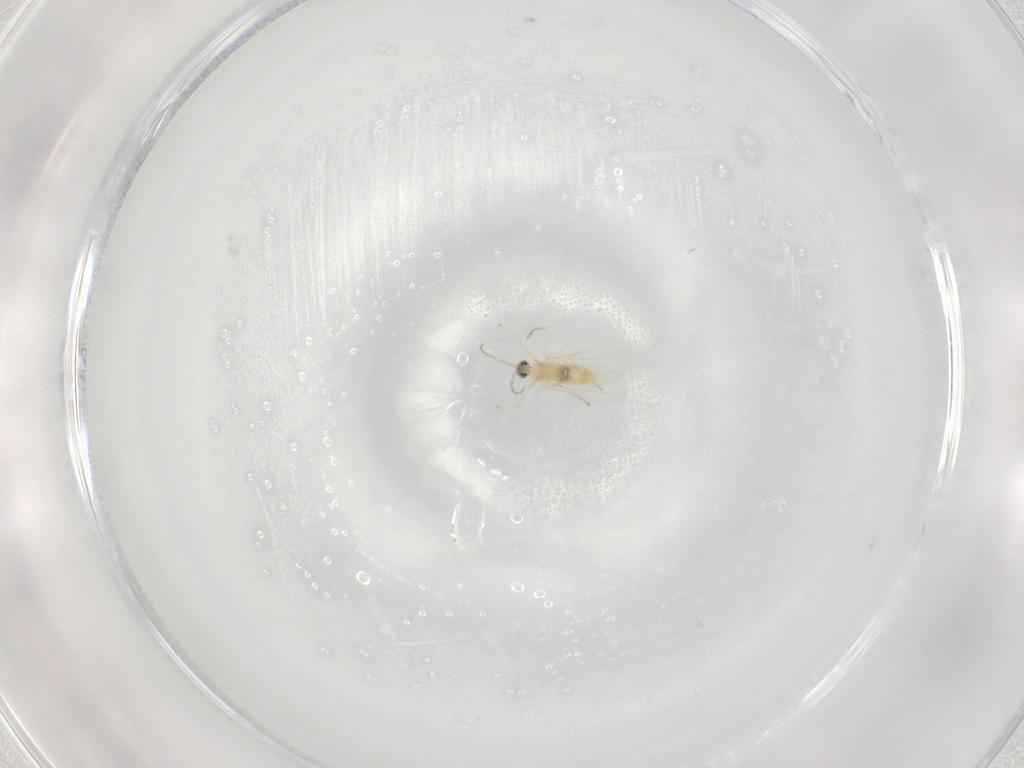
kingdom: Animalia
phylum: Arthropoda
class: Insecta
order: Diptera
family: Cecidomyiidae
